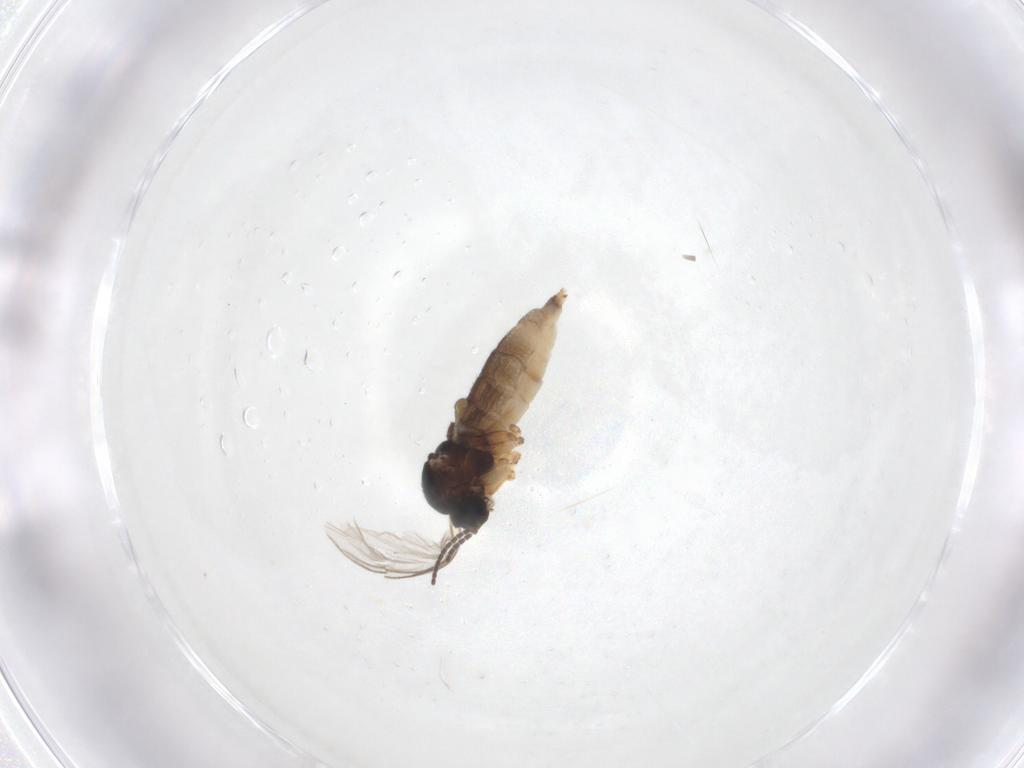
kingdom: Animalia
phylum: Arthropoda
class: Insecta
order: Diptera
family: Sciaridae
